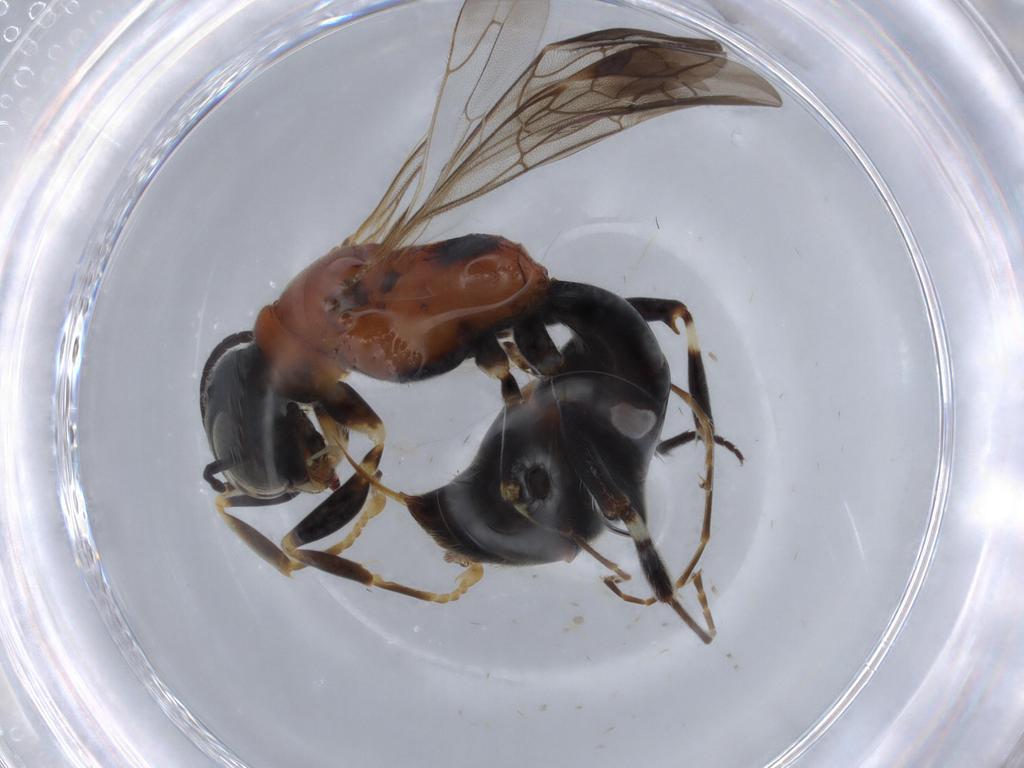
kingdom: Animalia
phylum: Arthropoda
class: Insecta
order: Hymenoptera
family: Bembicidae
